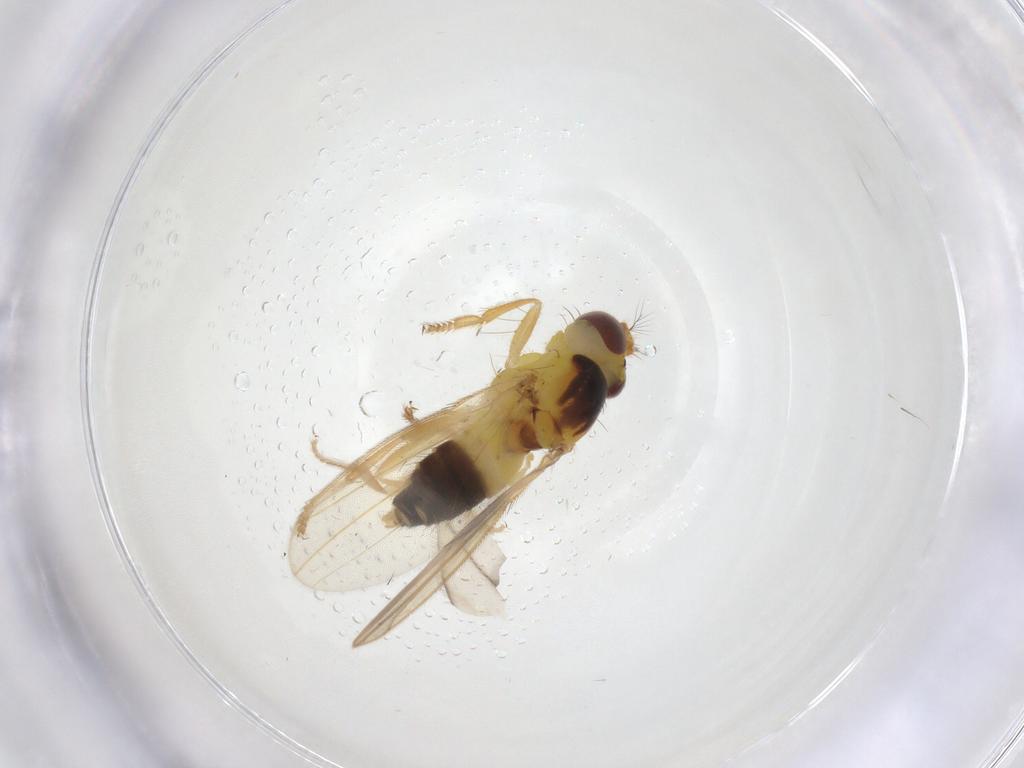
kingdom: Animalia
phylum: Arthropoda
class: Insecta
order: Diptera
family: Periscelididae
